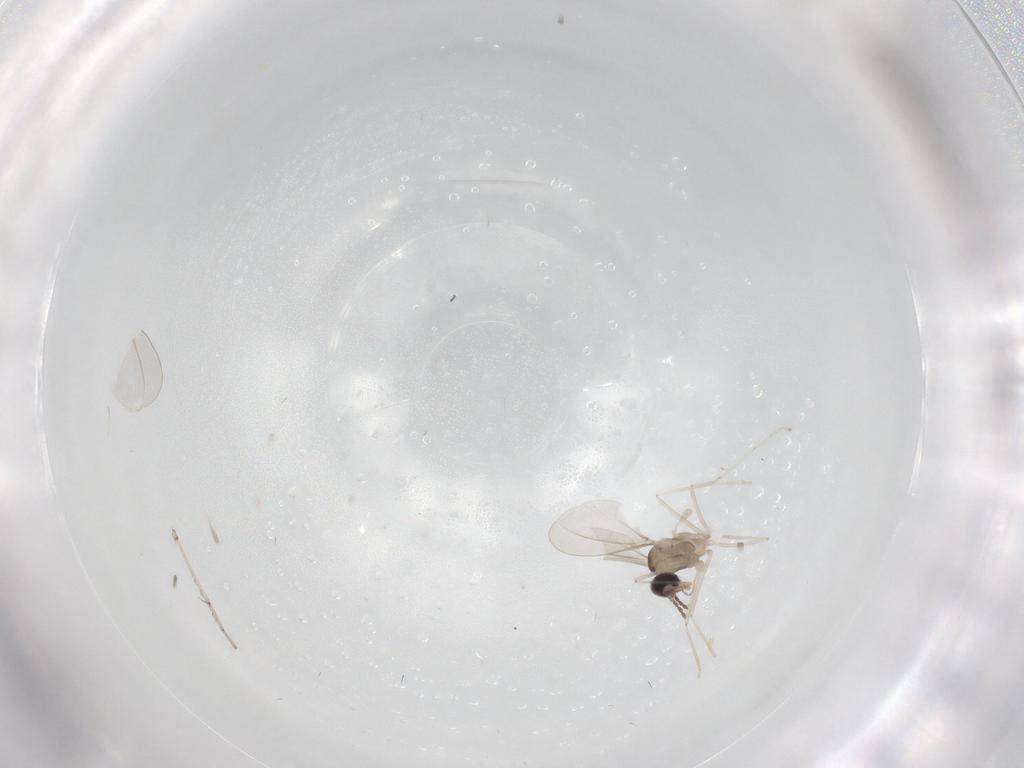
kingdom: Animalia
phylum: Arthropoda
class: Insecta
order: Diptera
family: Cecidomyiidae
